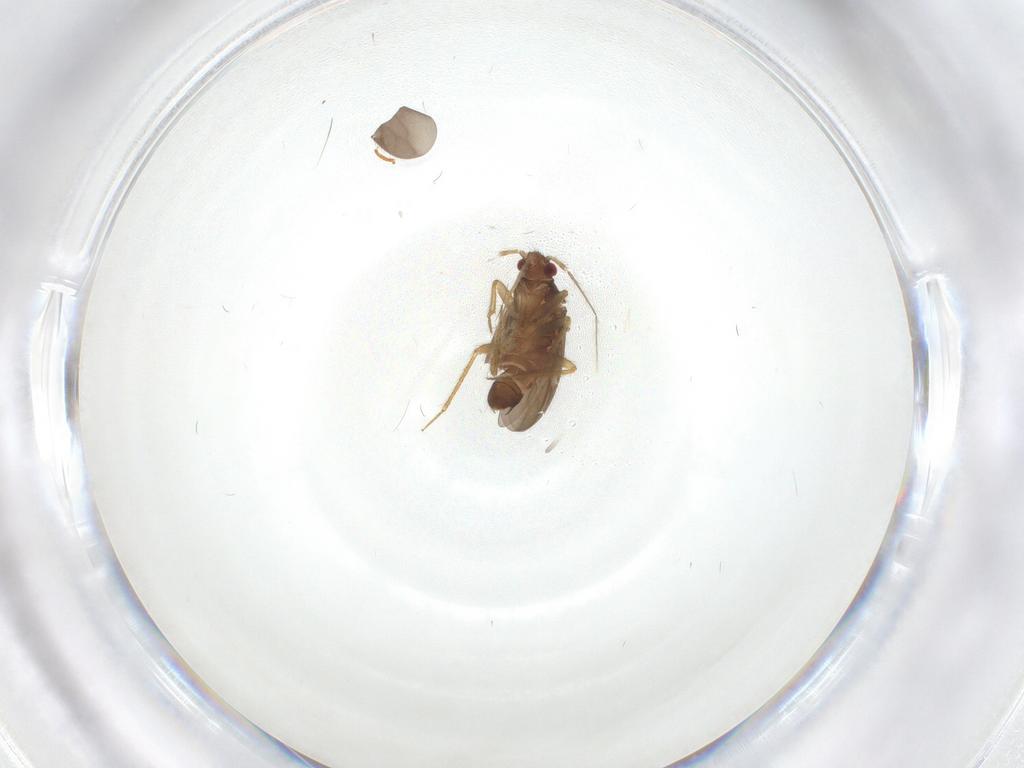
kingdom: Animalia
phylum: Arthropoda
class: Insecta
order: Hemiptera
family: Ceratocombidae
